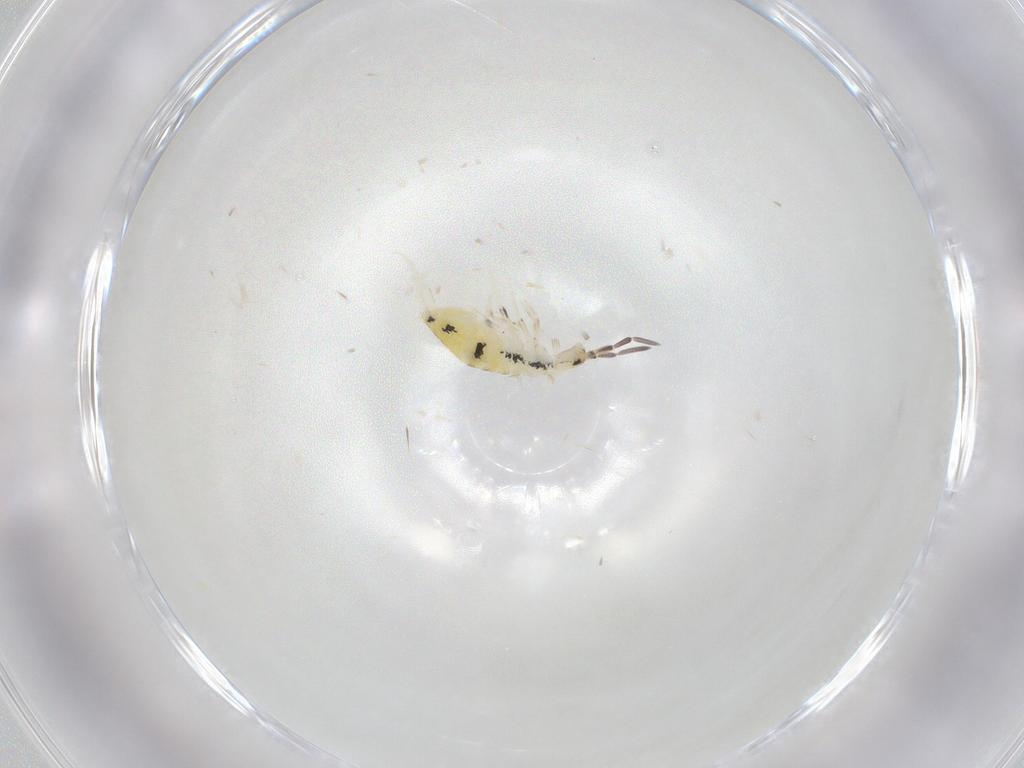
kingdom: Animalia
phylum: Arthropoda
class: Collembola
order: Entomobryomorpha
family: Entomobryidae
